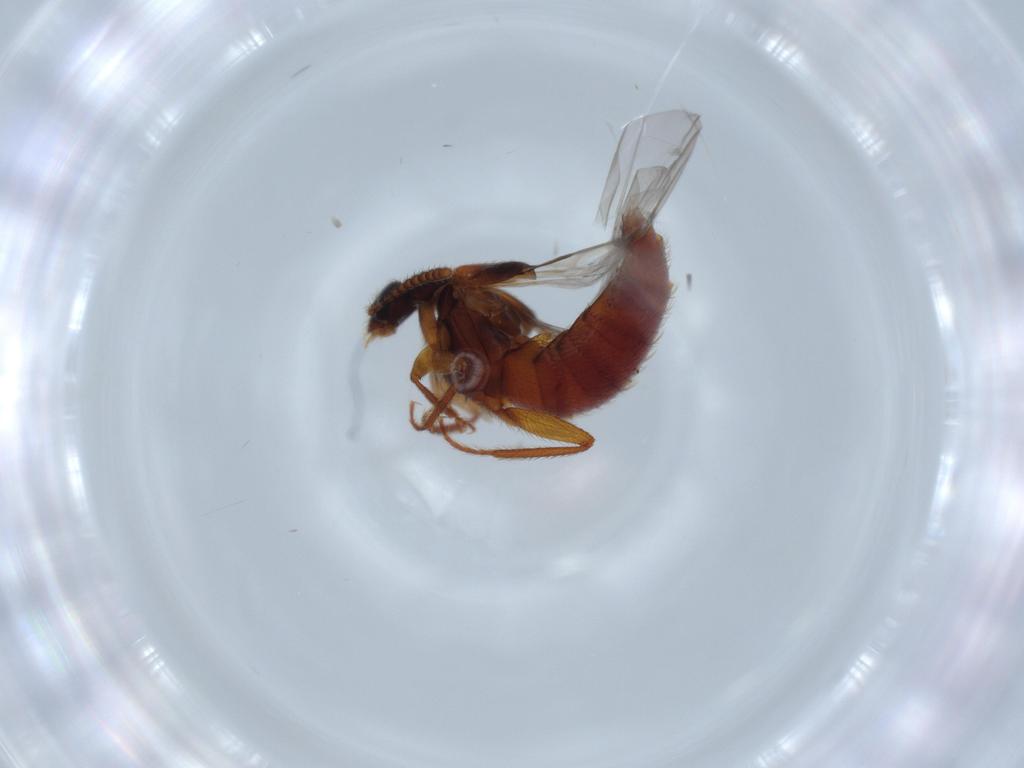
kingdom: Animalia
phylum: Arthropoda
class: Insecta
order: Coleoptera
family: Staphylinidae
